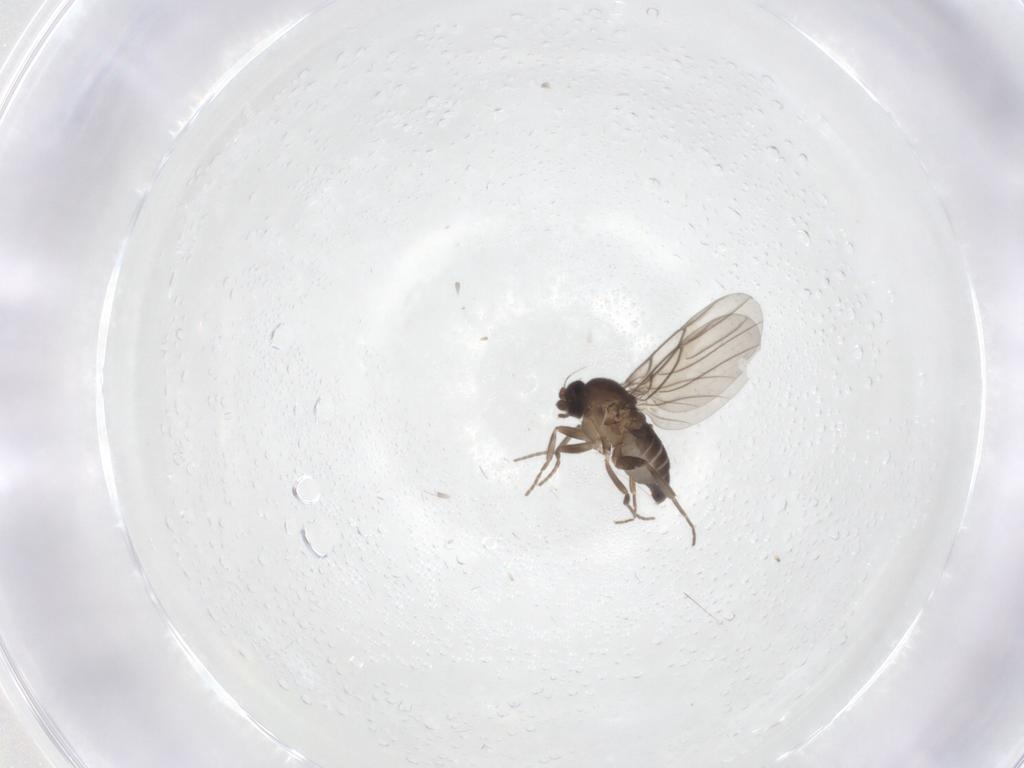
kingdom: Animalia
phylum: Arthropoda
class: Insecta
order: Diptera
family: Phoridae
